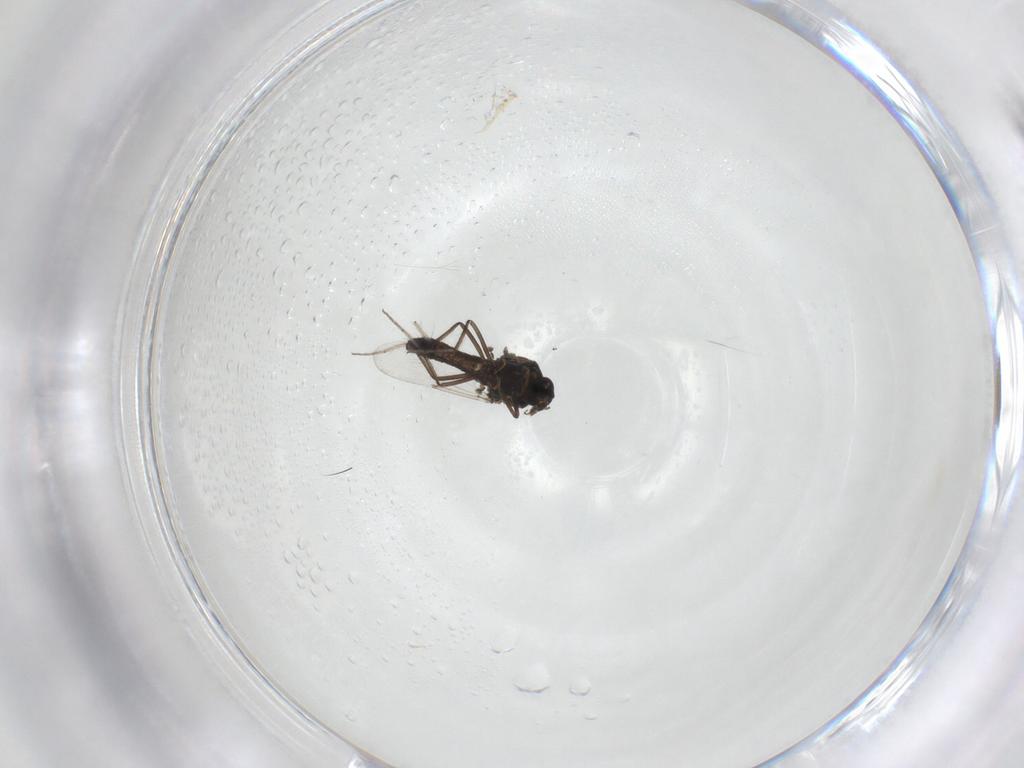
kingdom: Animalia
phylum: Arthropoda
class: Insecta
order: Diptera
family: Ceratopogonidae
